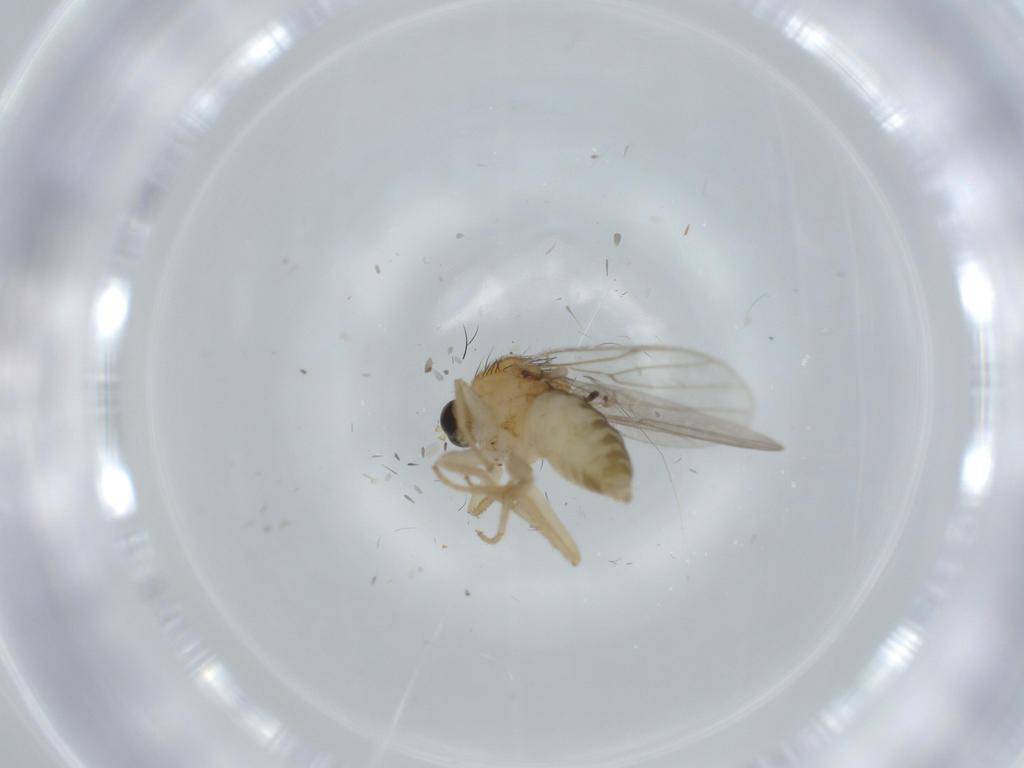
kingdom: Animalia
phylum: Arthropoda
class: Insecta
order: Diptera
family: Hybotidae
